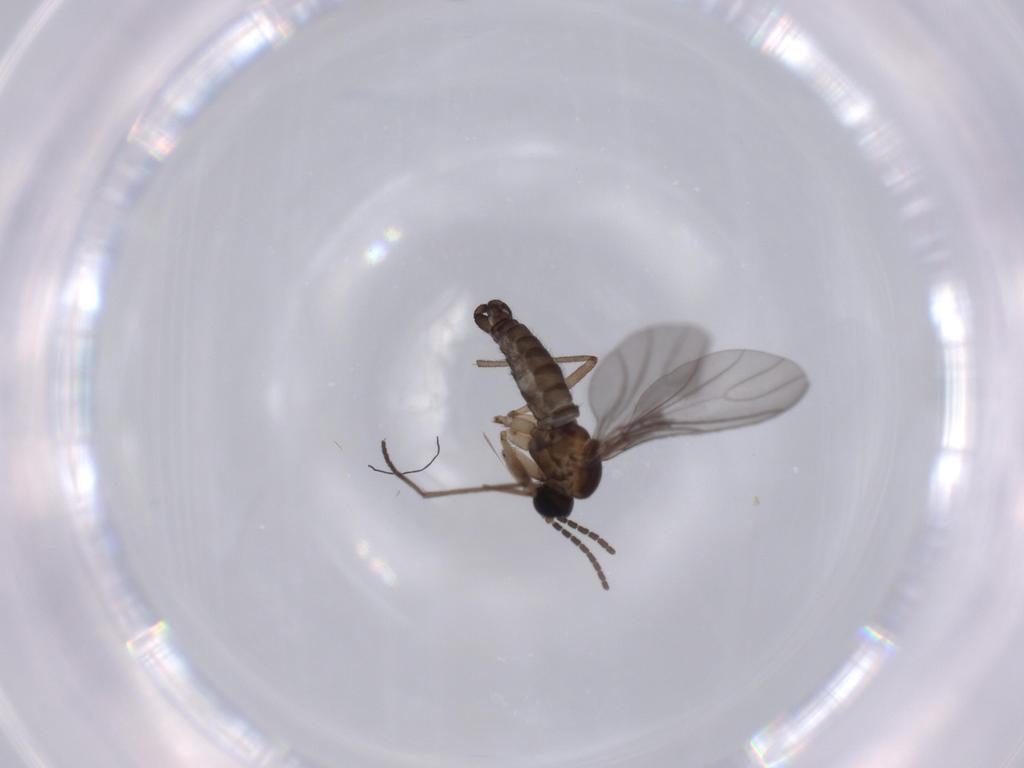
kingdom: Animalia
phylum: Arthropoda
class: Insecta
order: Diptera
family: Sciaridae
